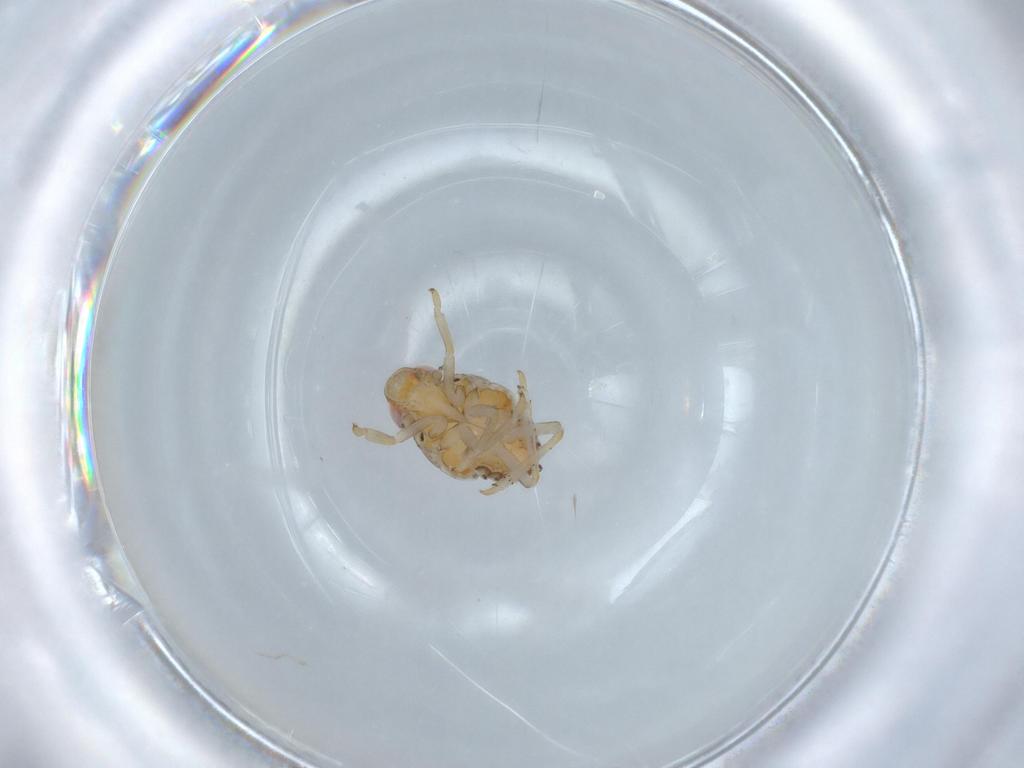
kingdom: Animalia
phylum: Arthropoda
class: Insecta
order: Hemiptera
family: Issidae
